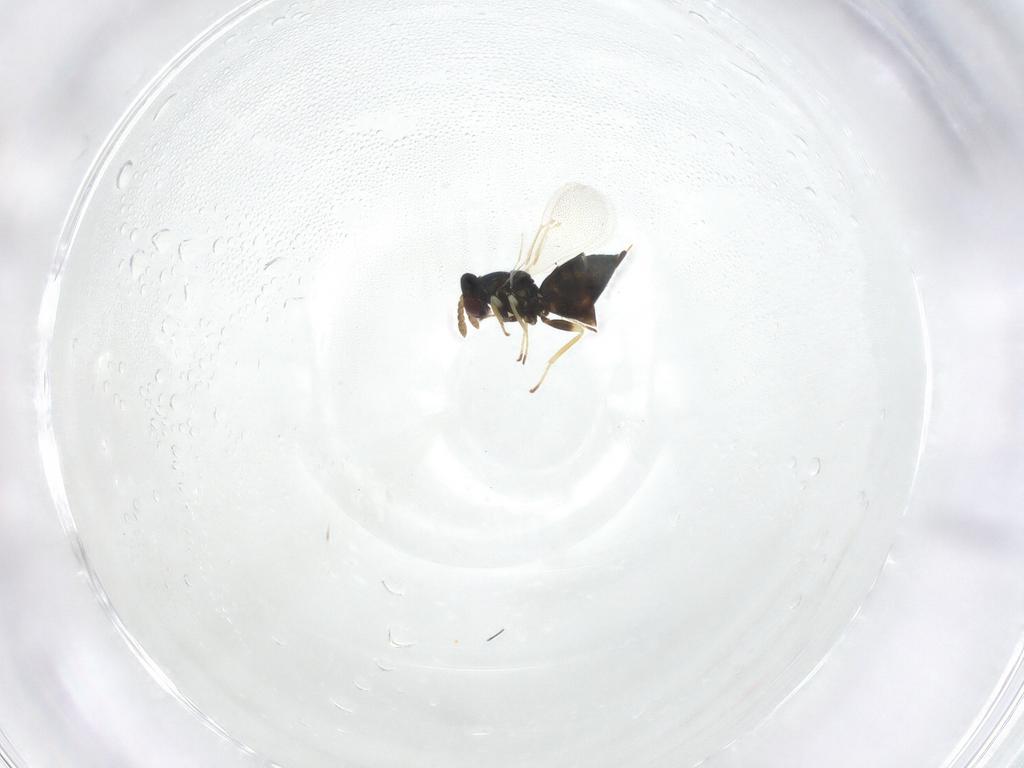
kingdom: Animalia
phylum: Arthropoda
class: Insecta
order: Hymenoptera
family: Eulophidae
